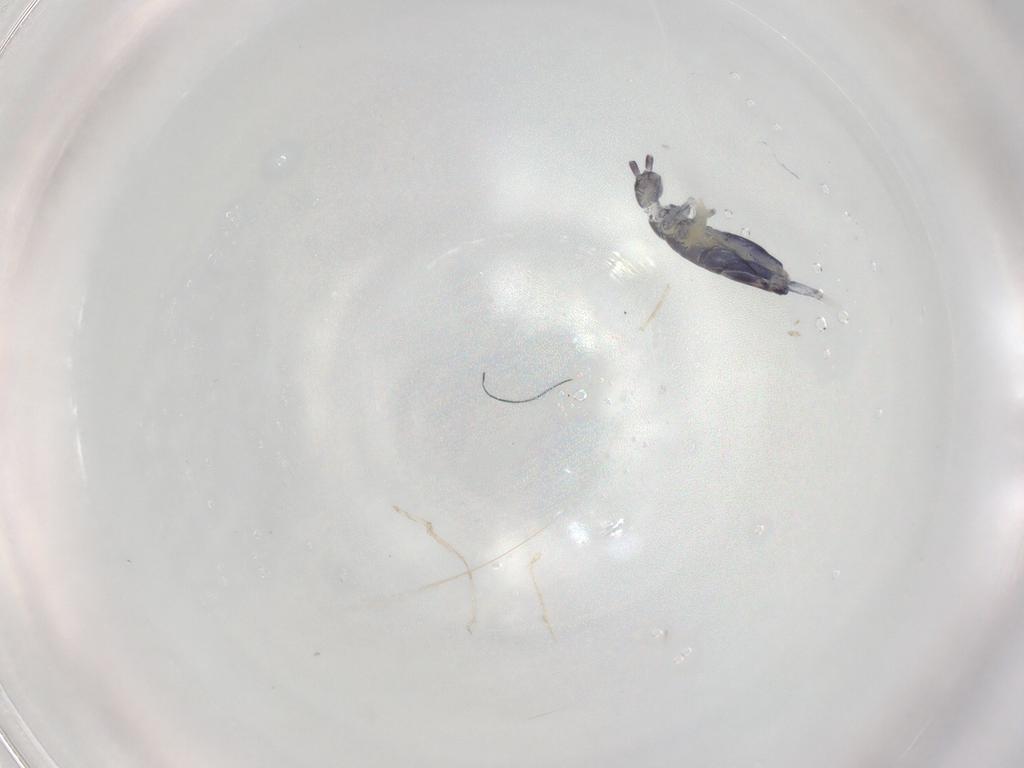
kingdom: Animalia
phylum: Arthropoda
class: Collembola
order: Entomobryomorpha
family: Entomobryidae
